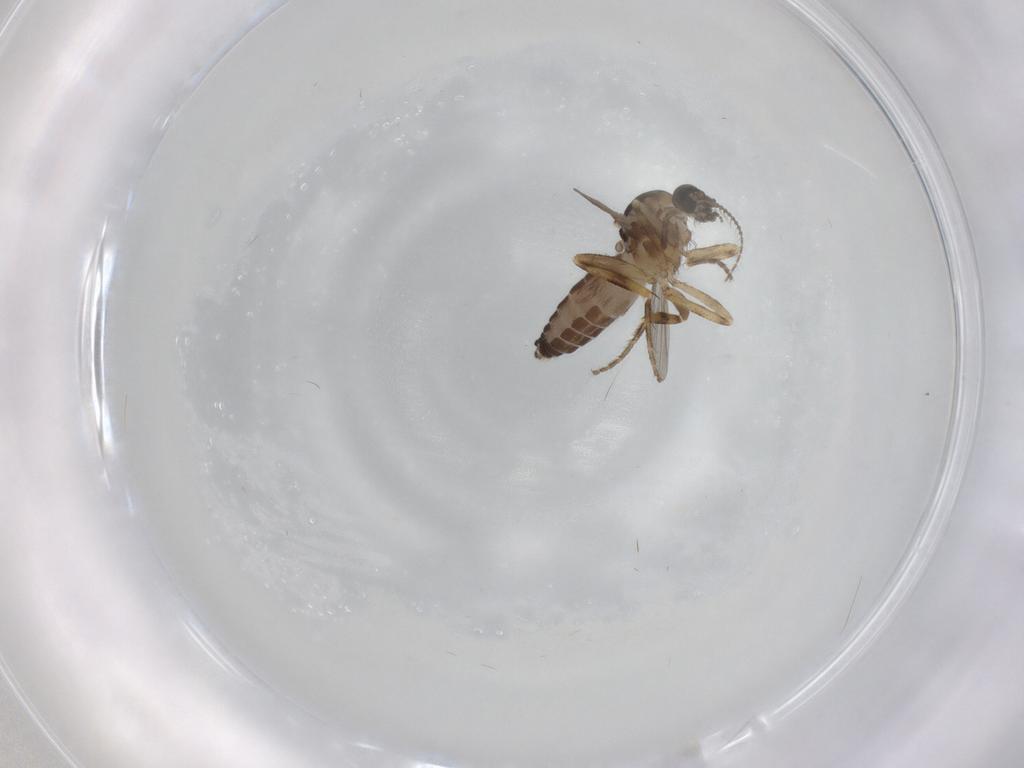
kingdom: Animalia
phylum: Arthropoda
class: Insecta
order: Diptera
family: Ceratopogonidae
